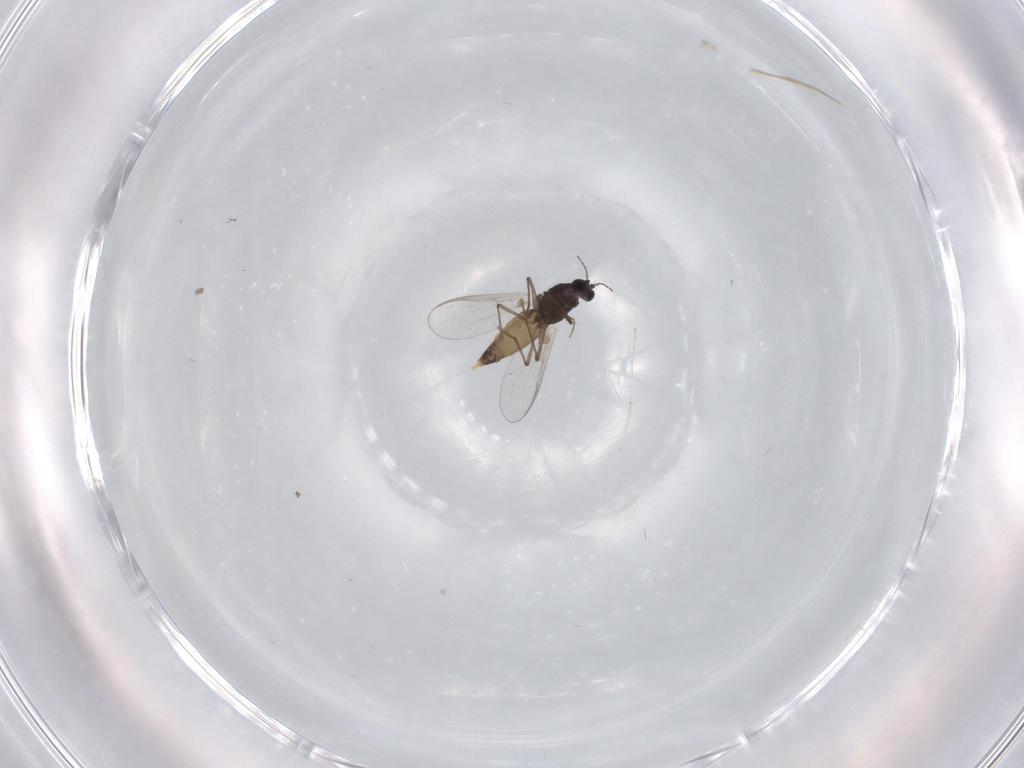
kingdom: Animalia
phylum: Arthropoda
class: Insecta
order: Diptera
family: Chironomidae
